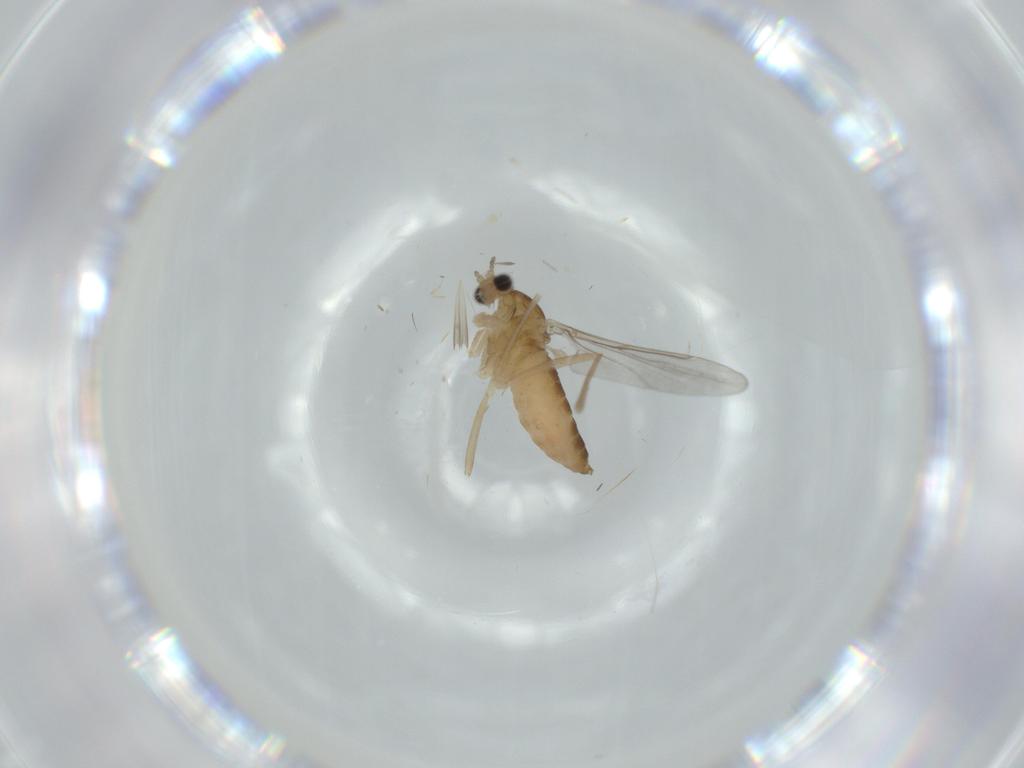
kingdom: Animalia
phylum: Arthropoda
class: Insecta
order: Diptera
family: Cecidomyiidae
